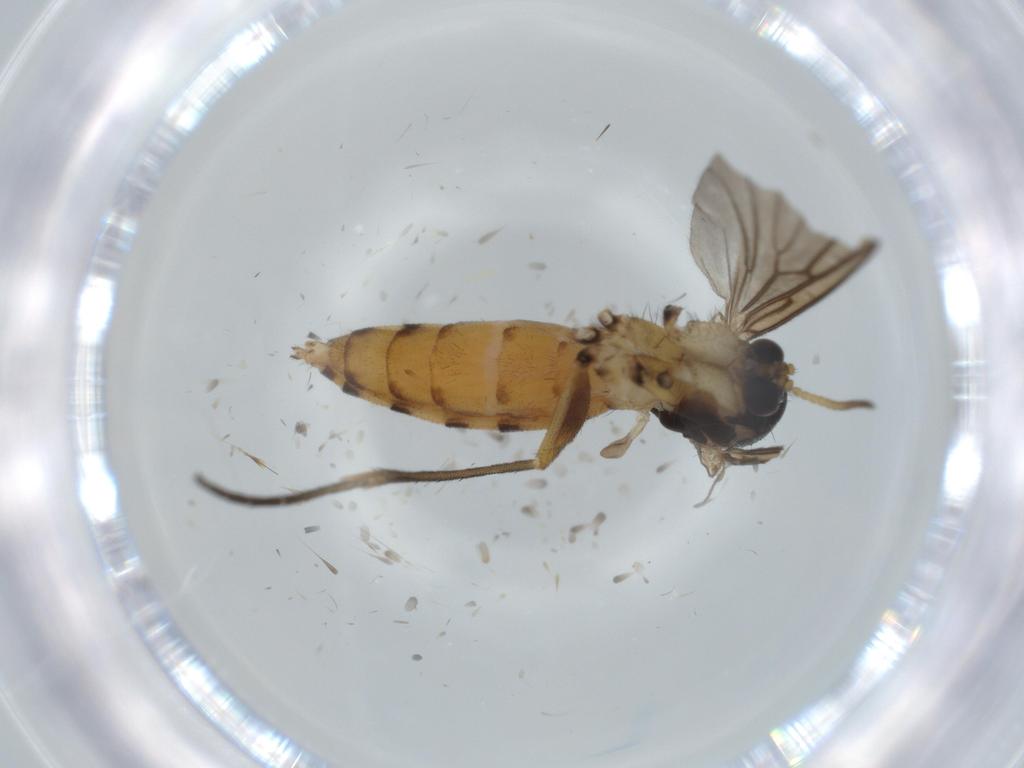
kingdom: Animalia
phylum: Arthropoda
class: Insecta
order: Diptera
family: Mycetophilidae
